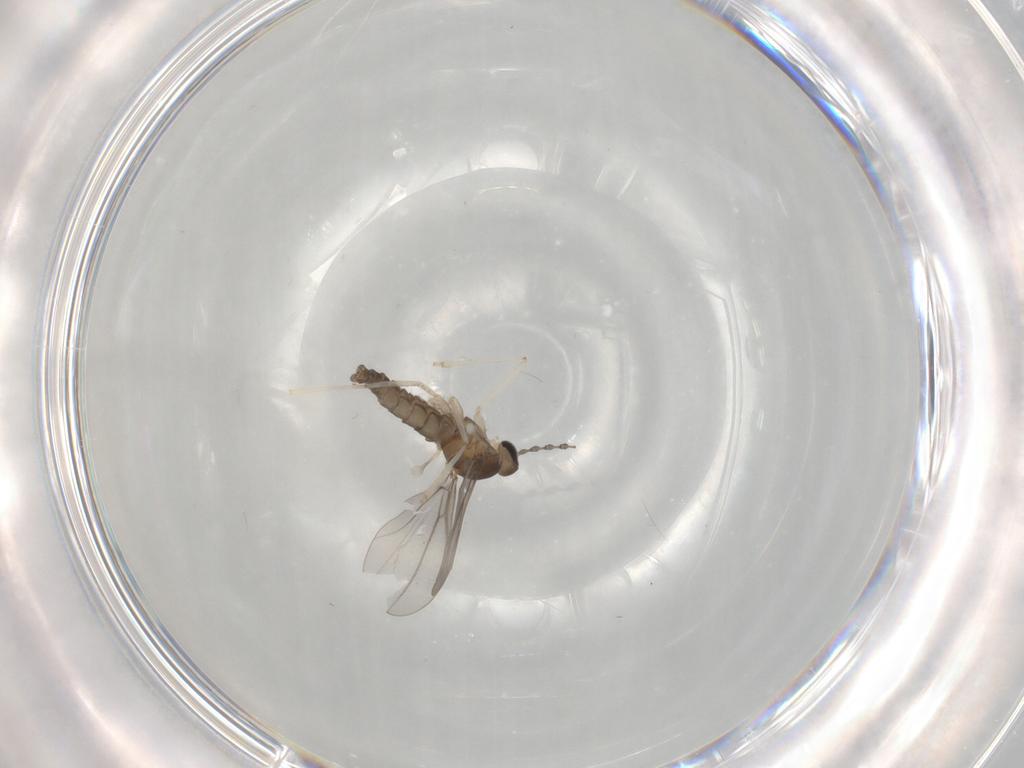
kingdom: Animalia
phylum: Arthropoda
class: Insecta
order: Diptera
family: Cecidomyiidae
